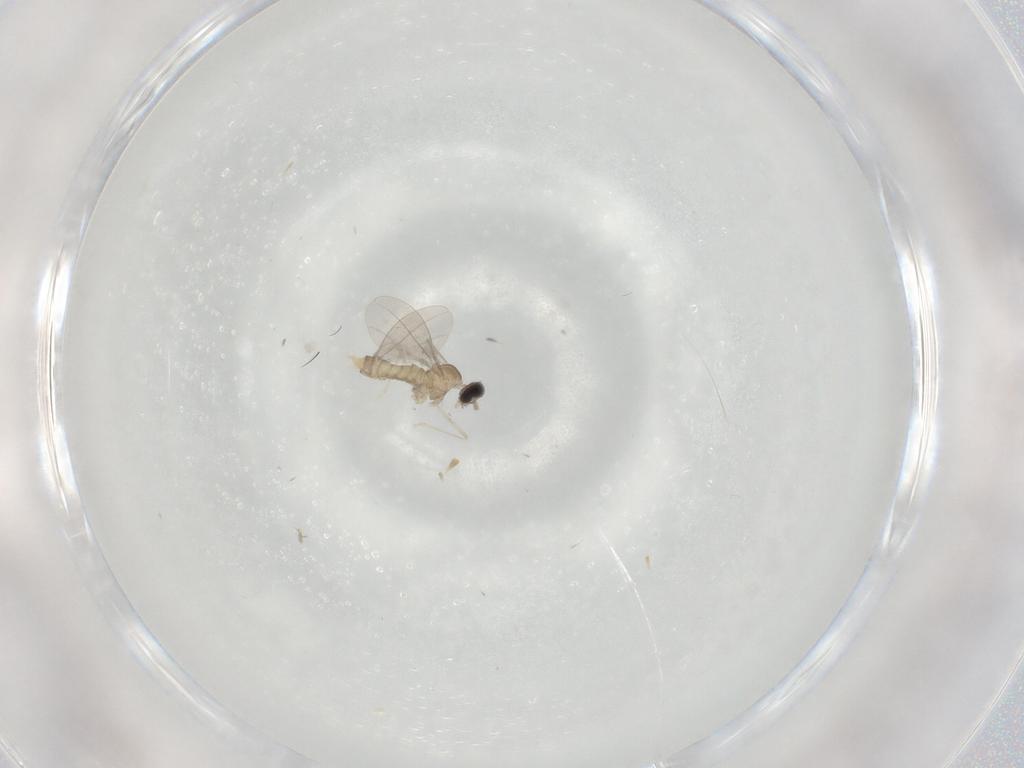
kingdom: Animalia
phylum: Arthropoda
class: Insecta
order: Diptera
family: Cecidomyiidae
